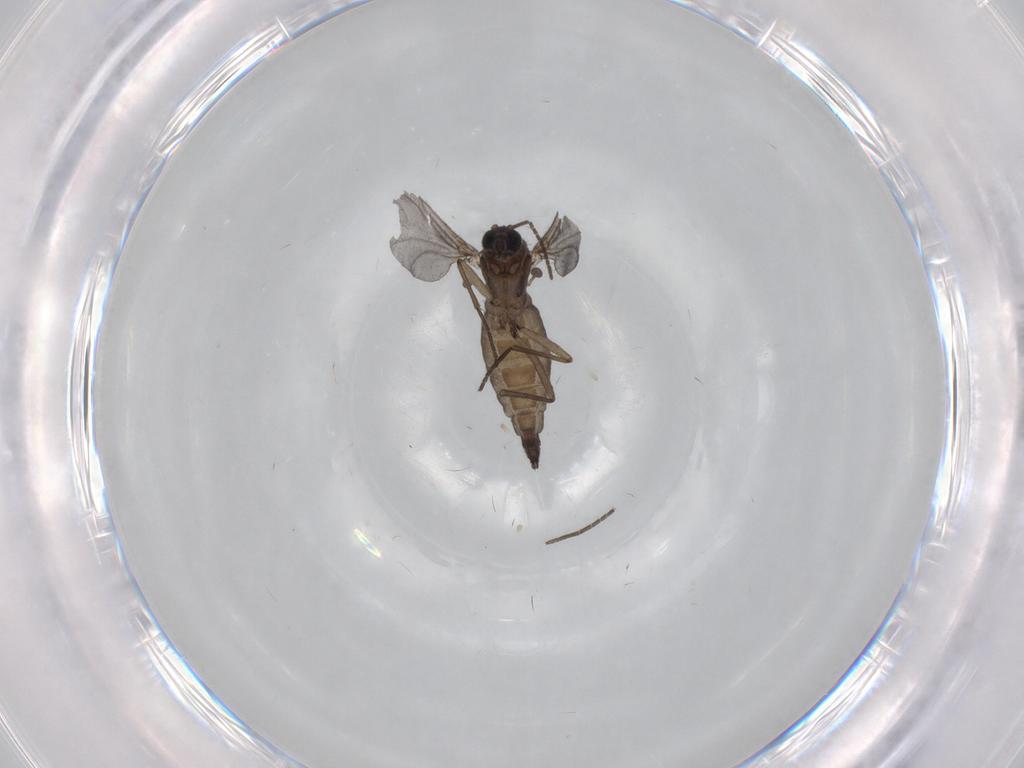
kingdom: Animalia
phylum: Arthropoda
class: Insecta
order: Diptera
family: Sciaridae
